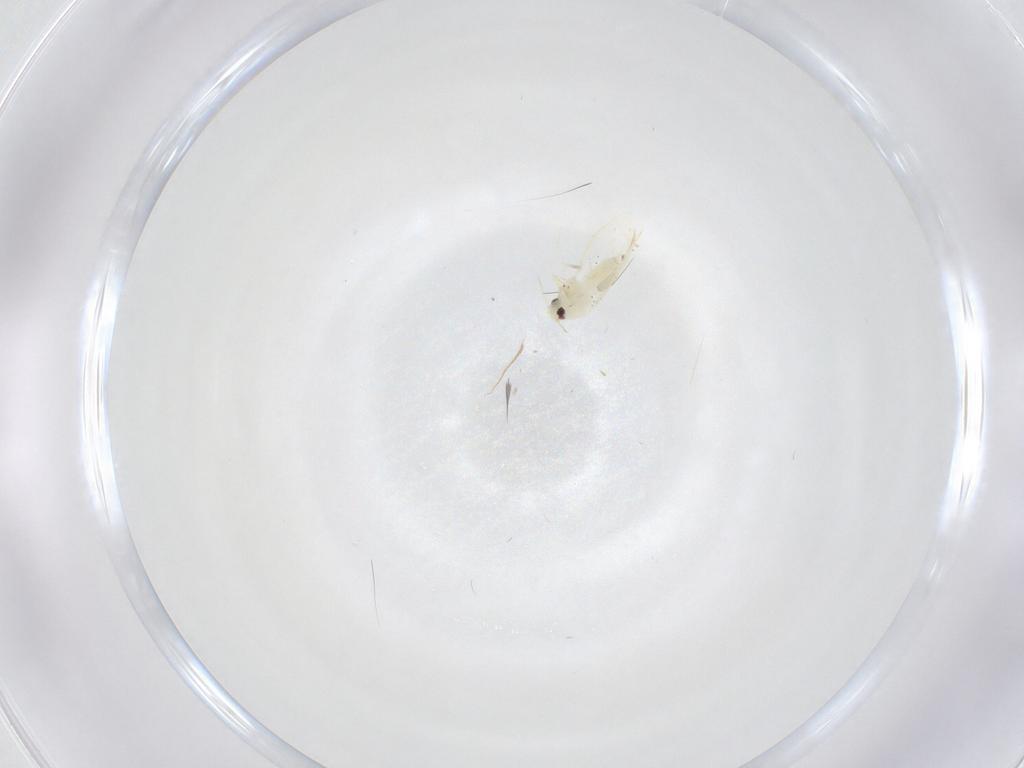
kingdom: Animalia
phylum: Arthropoda
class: Insecta
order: Hemiptera
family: Aleyrodidae
